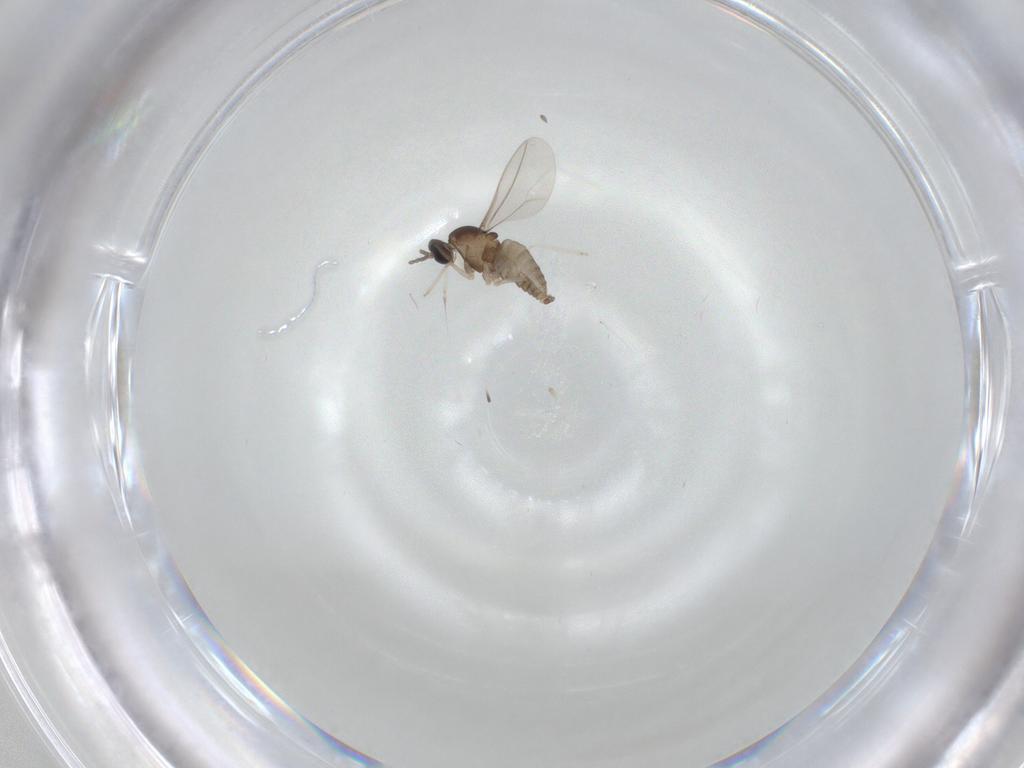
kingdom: Animalia
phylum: Arthropoda
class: Insecta
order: Diptera
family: Cecidomyiidae
